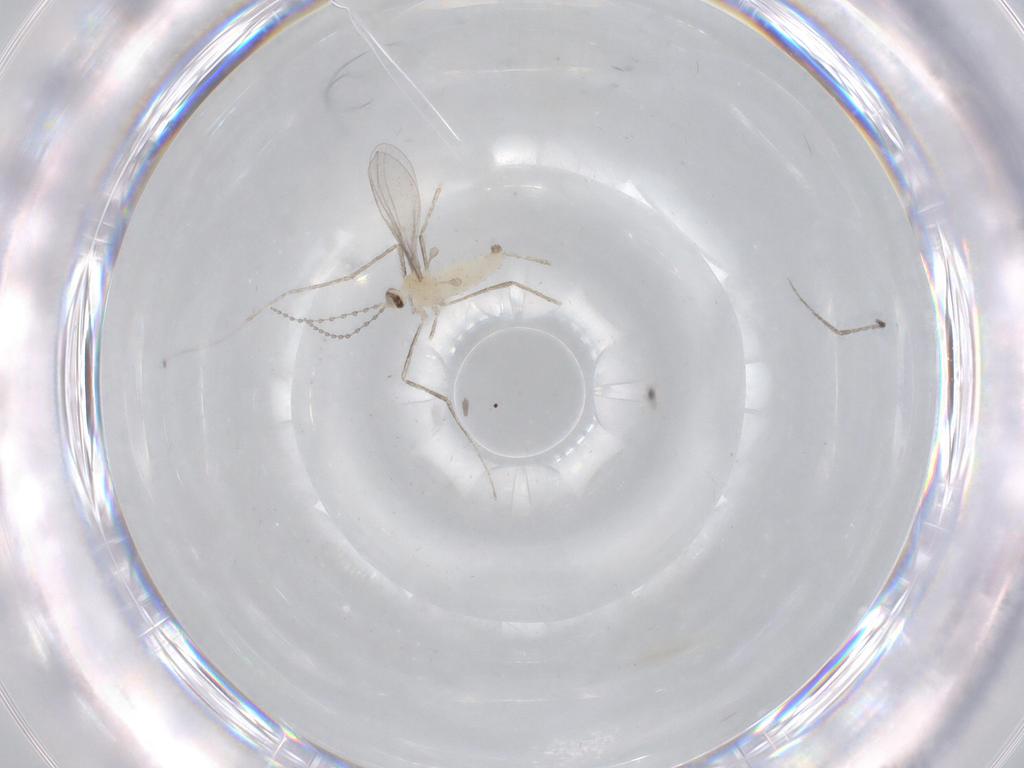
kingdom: Animalia
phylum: Arthropoda
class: Insecta
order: Diptera
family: Cecidomyiidae
